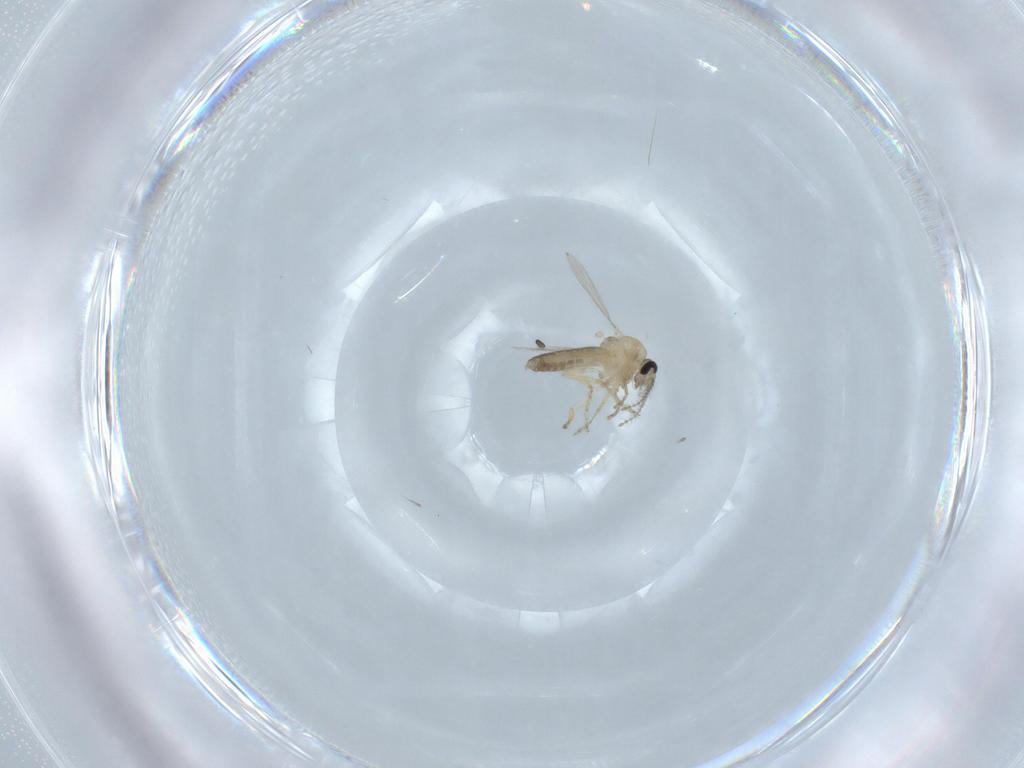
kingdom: Animalia
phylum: Arthropoda
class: Insecta
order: Diptera
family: Ceratopogonidae
